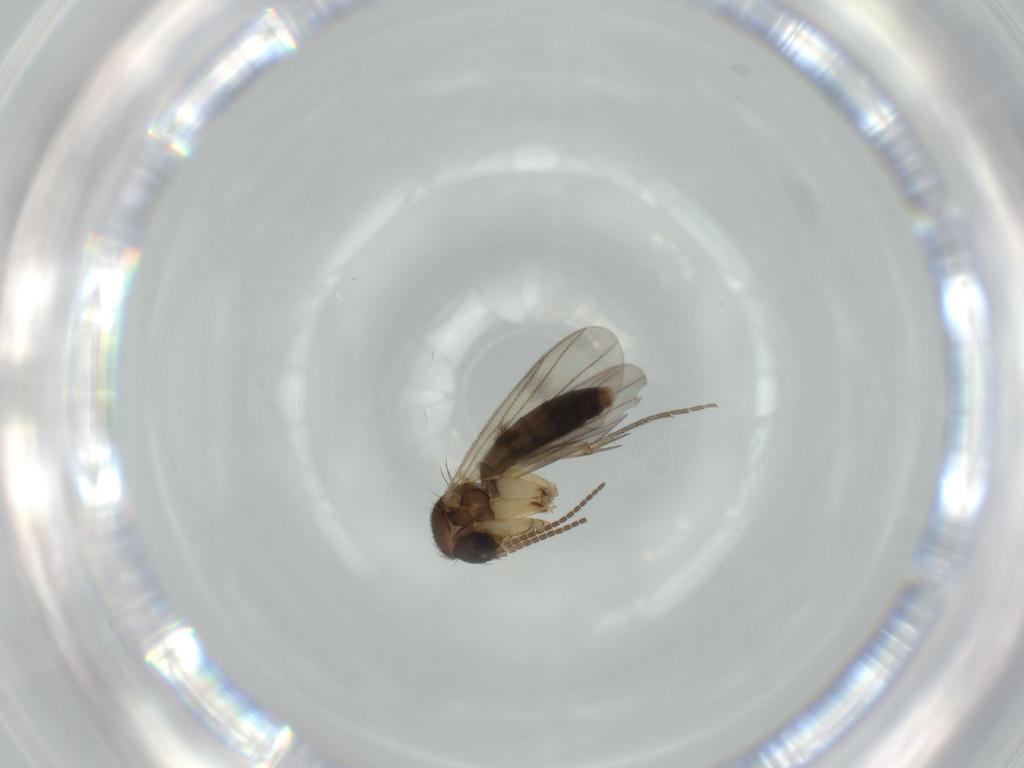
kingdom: Animalia
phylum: Arthropoda
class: Insecta
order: Diptera
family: Mycetophilidae
